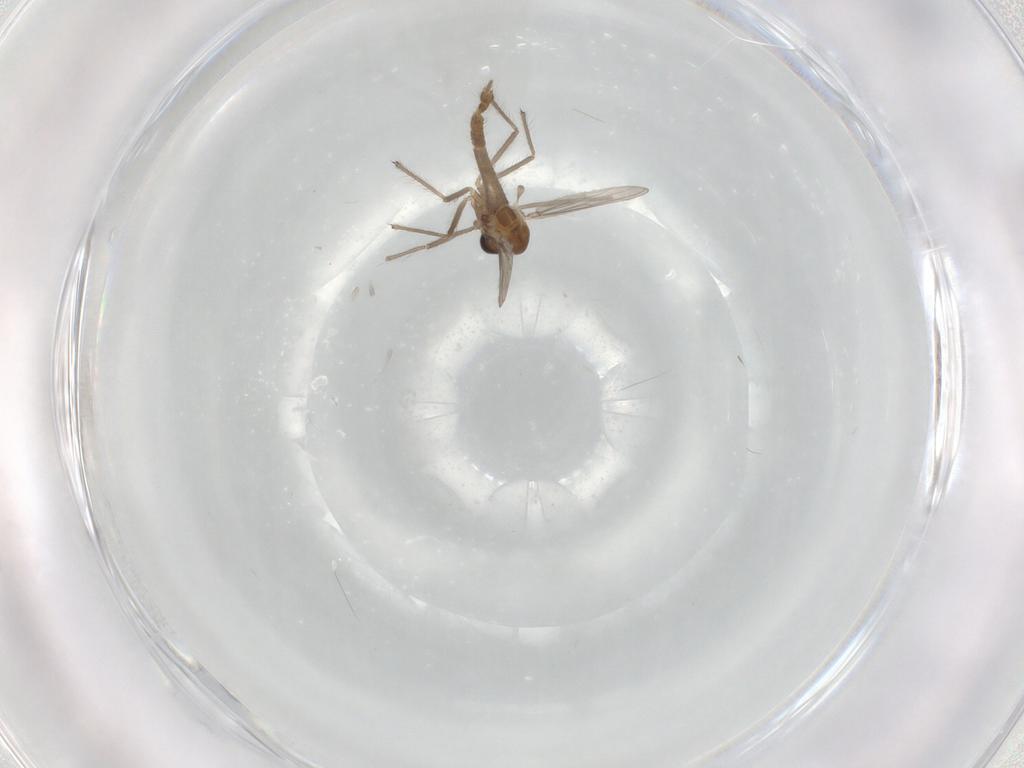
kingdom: Animalia
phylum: Arthropoda
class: Insecta
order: Diptera
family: Chironomidae
